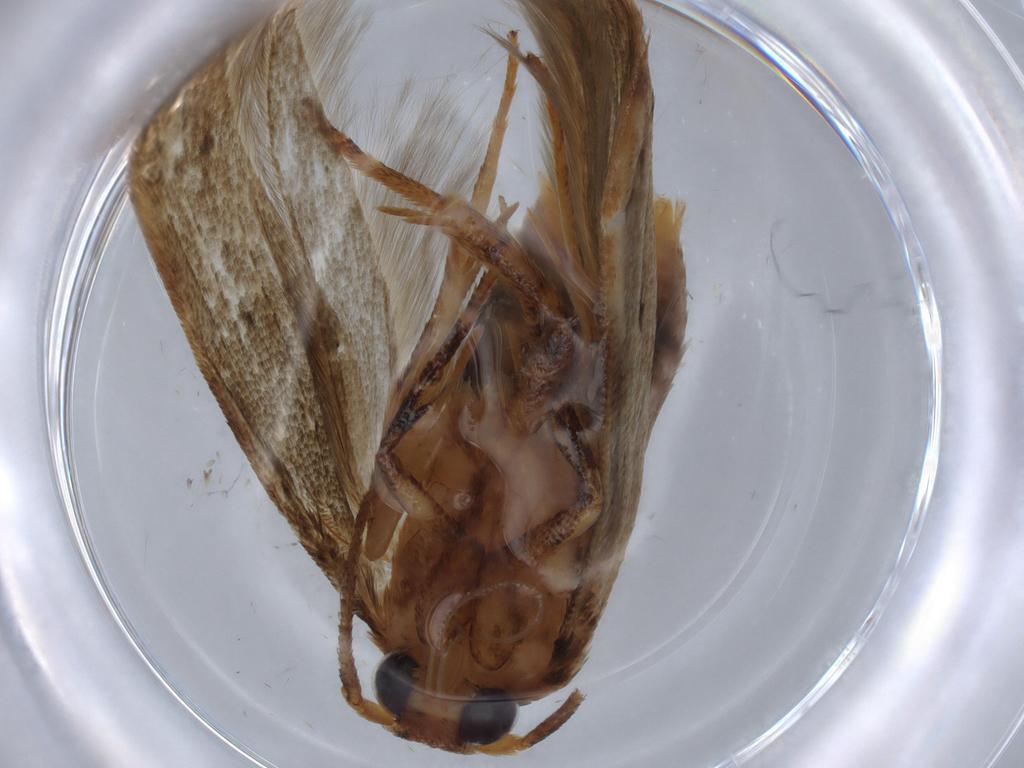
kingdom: Animalia
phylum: Arthropoda
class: Insecta
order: Lepidoptera
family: Blastobasidae
